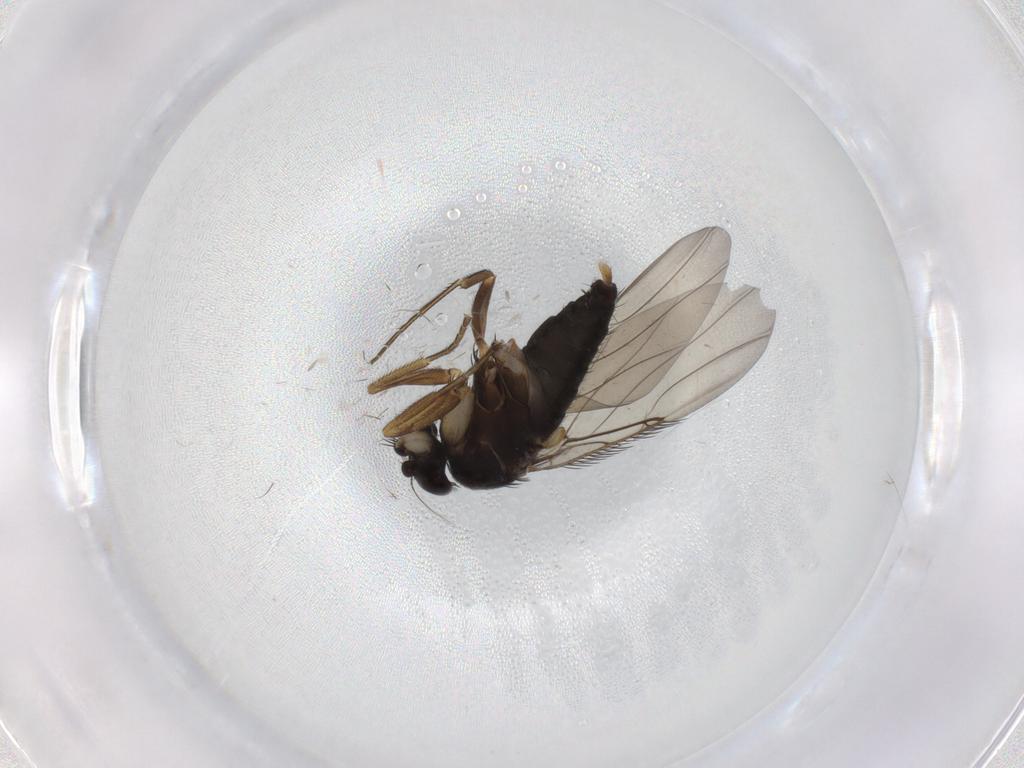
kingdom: Animalia
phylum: Arthropoda
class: Insecta
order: Diptera
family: Phoridae
